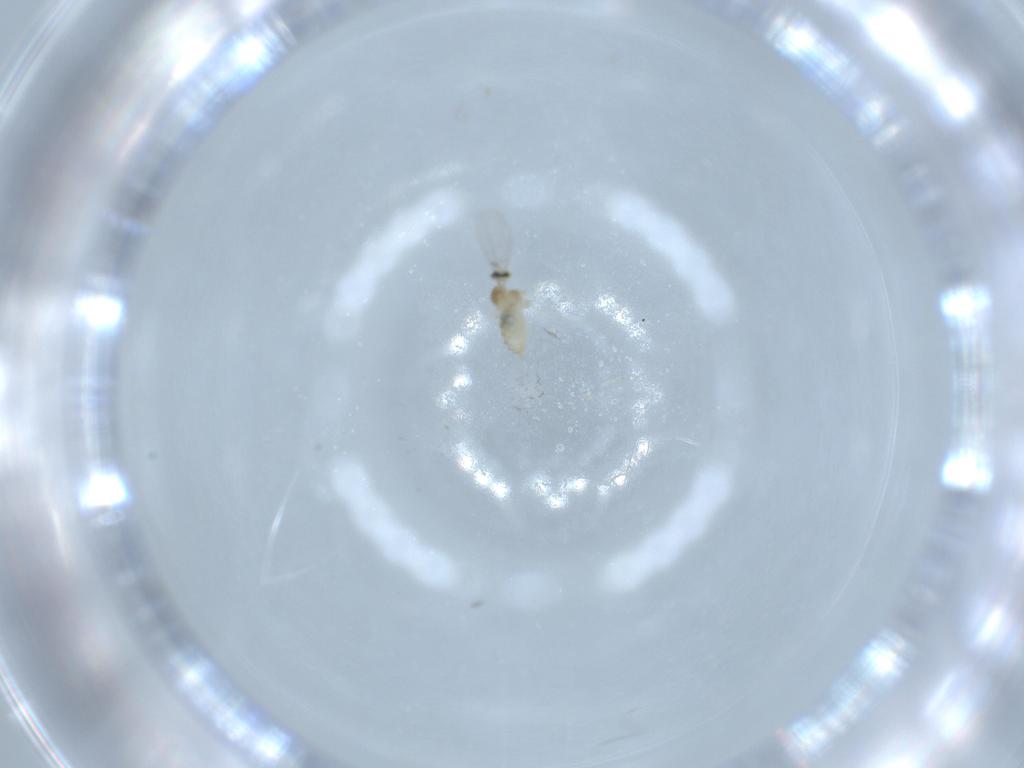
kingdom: Animalia
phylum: Arthropoda
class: Insecta
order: Diptera
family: Cecidomyiidae
